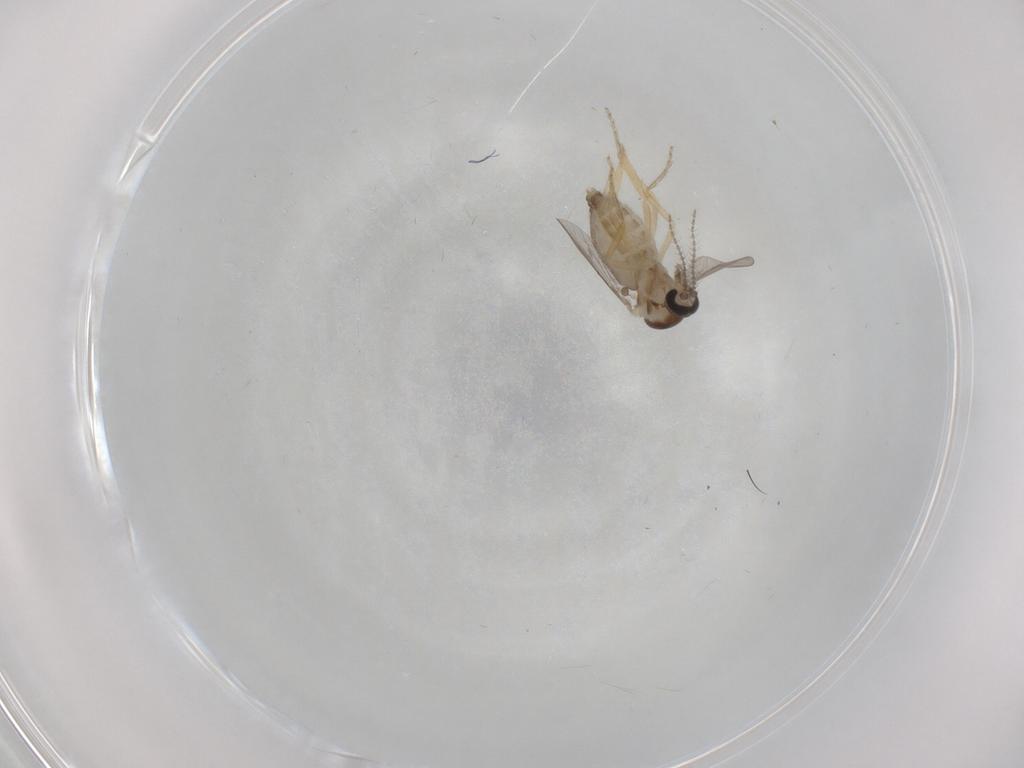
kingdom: Animalia
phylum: Arthropoda
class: Insecta
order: Diptera
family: Ceratopogonidae
